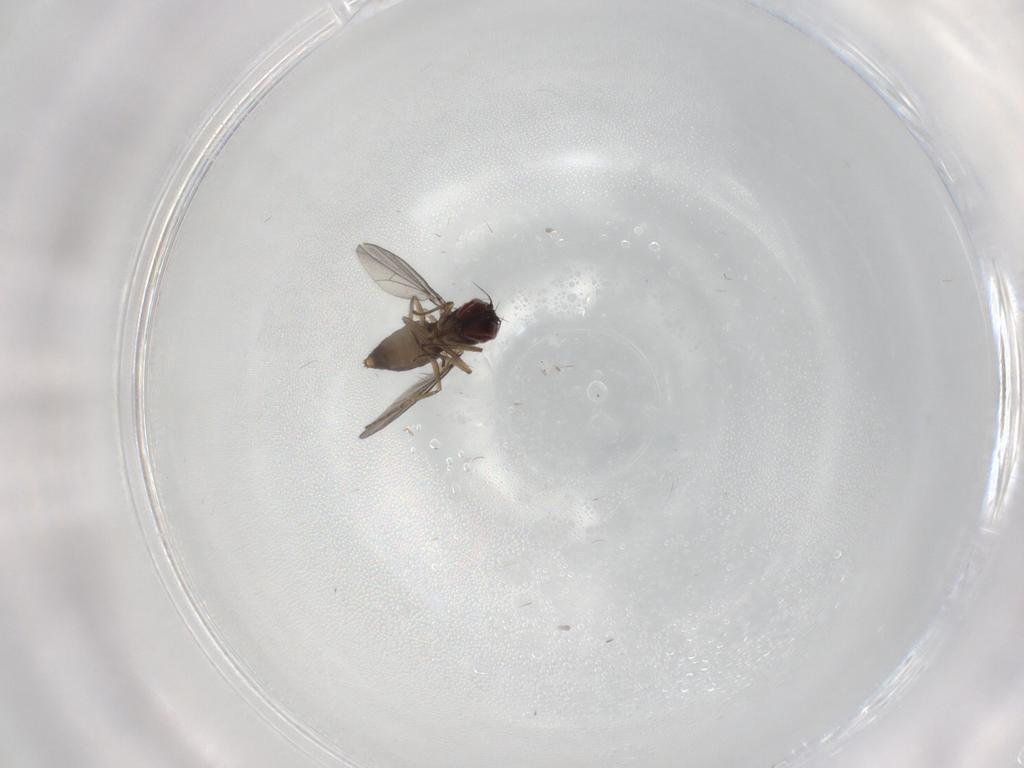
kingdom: Animalia
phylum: Arthropoda
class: Insecta
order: Diptera
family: Dolichopodidae
